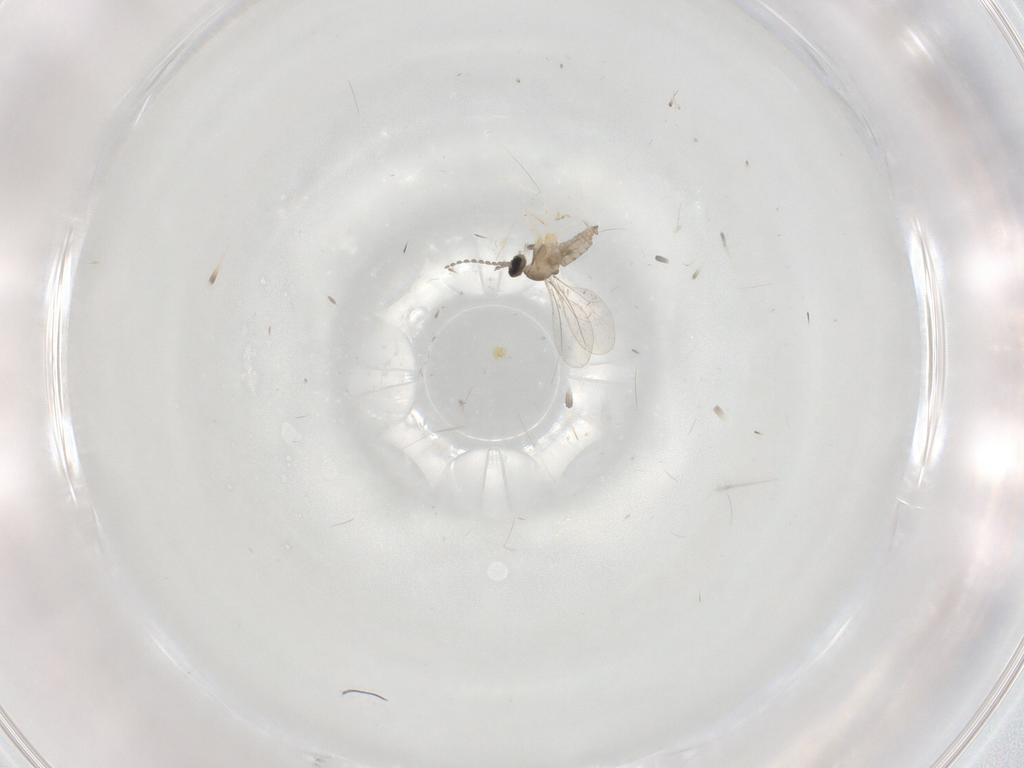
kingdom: Animalia
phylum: Arthropoda
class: Insecta
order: Diptera
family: Cecidomyiidae
